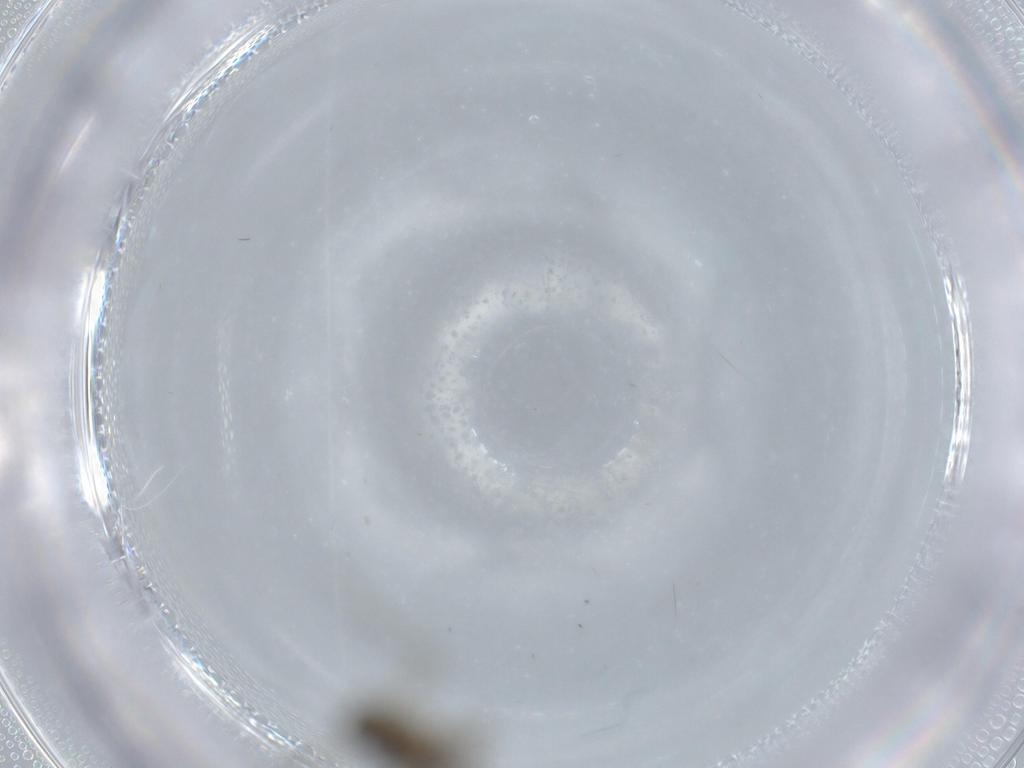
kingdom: Animalia
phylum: Arthropoda
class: Insecta
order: Diptera
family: Chironomidae
